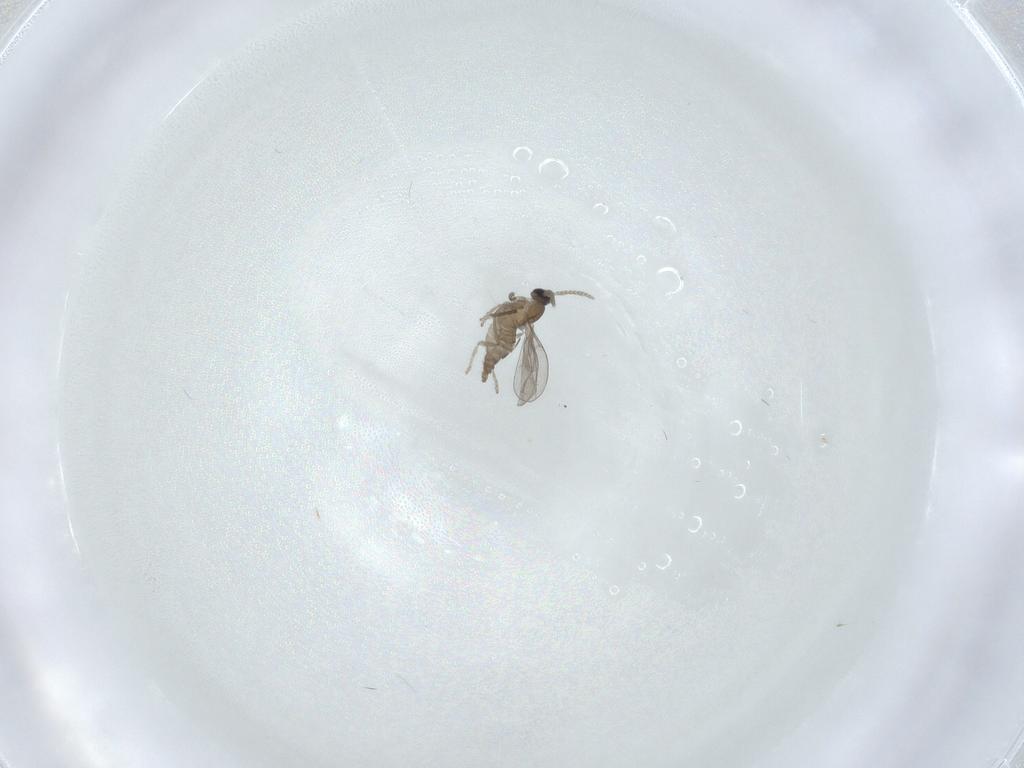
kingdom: Animalia
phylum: Arthropoda
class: Insecta
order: Diptera
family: Cecidomyiidae
